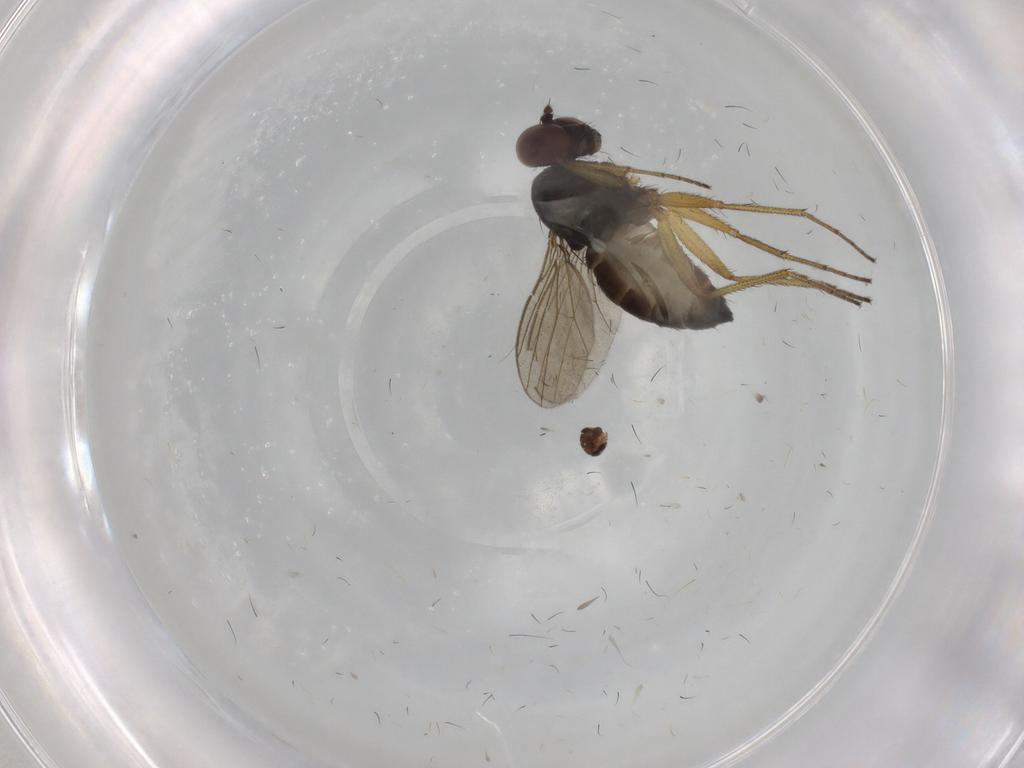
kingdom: Animalia
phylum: Arthropoda
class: Insecta
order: Diptera
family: Dolichopodidae
